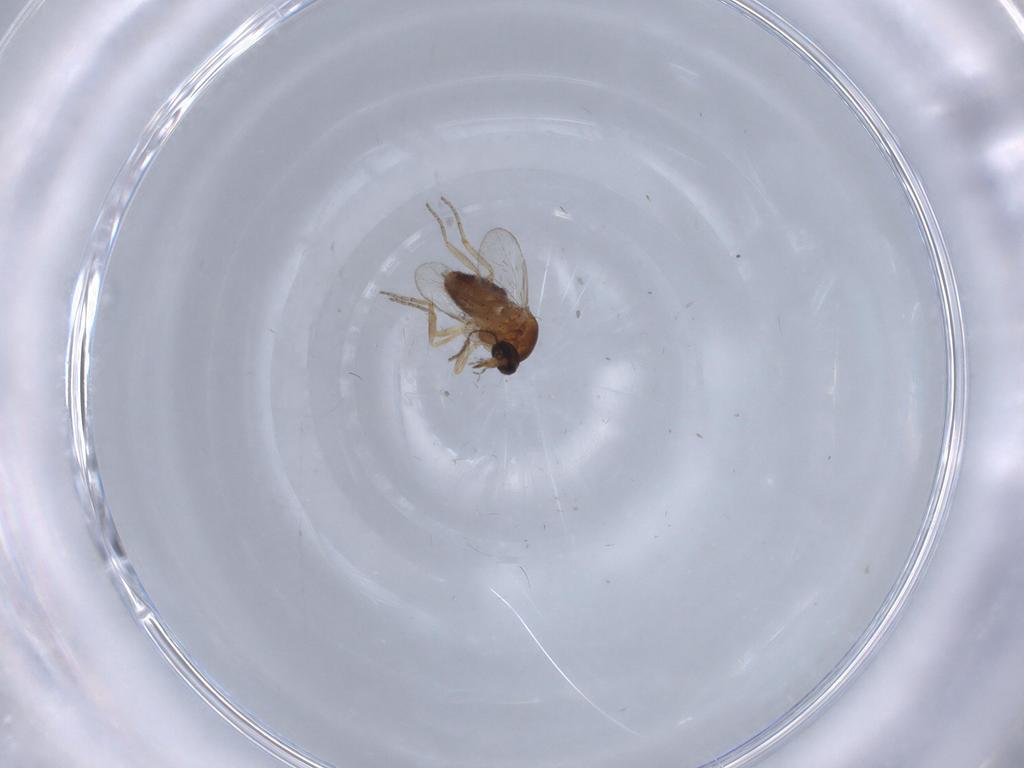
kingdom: Animalia
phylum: Arthropoda
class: Insecta
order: Diptera
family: Ceratopogonidae
